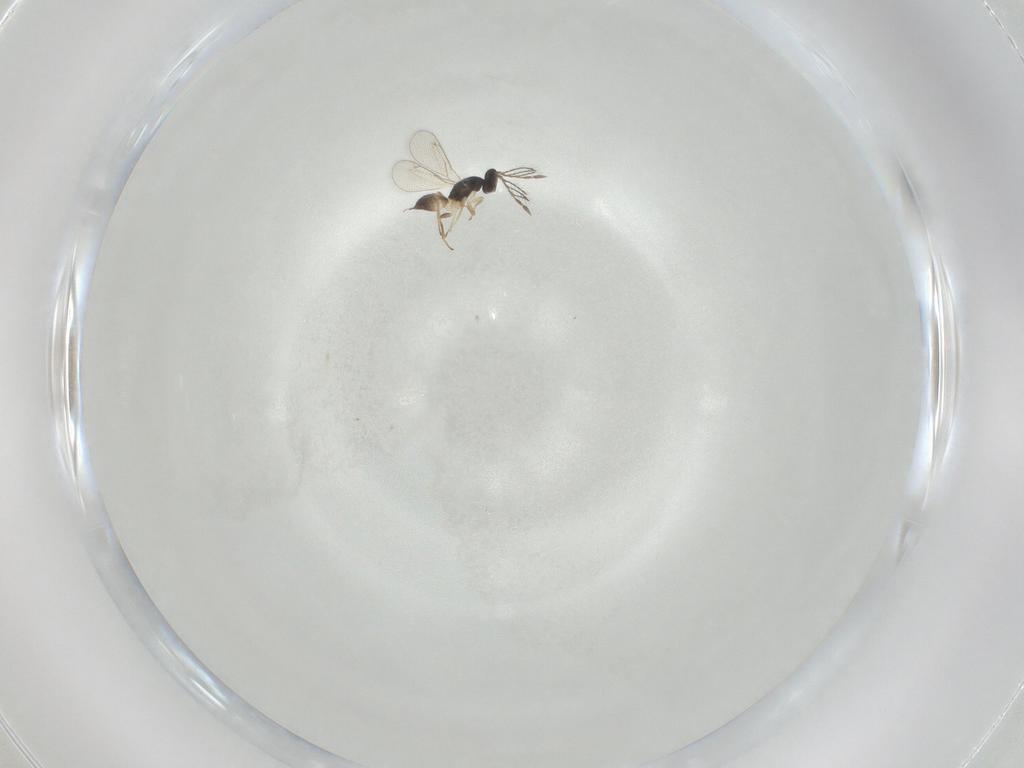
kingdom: Animalia
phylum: Arthropoda
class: Insecta
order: Hymenoptera
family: Eulophidae
